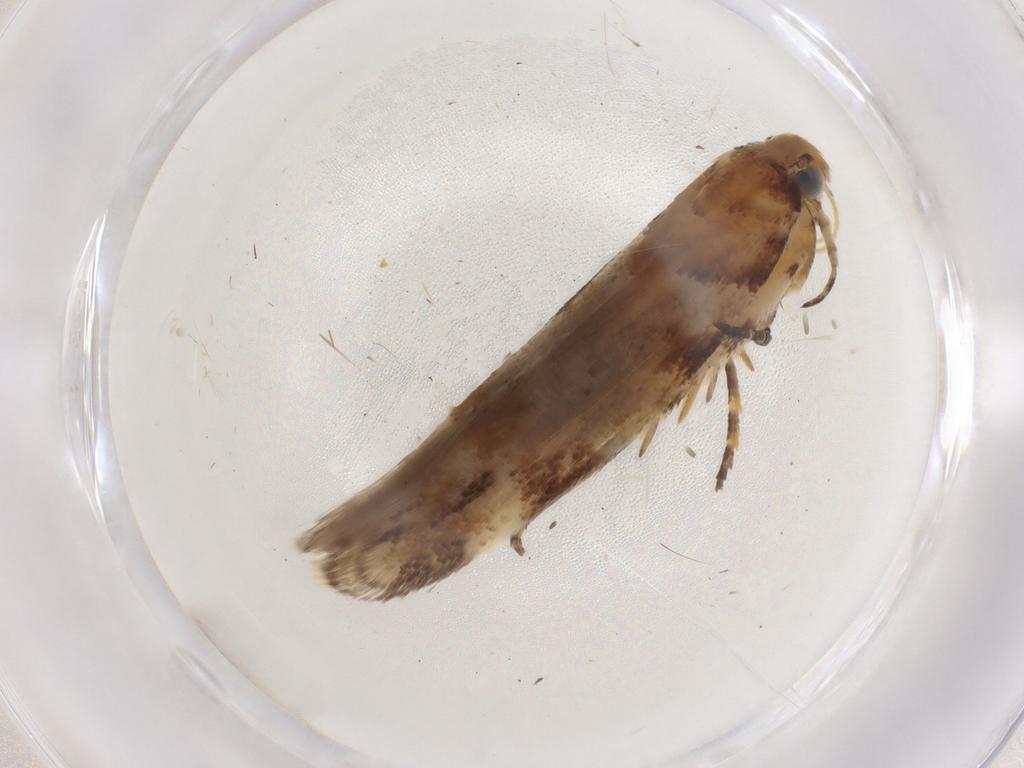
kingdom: Animalia
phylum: Arthropoda
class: Insecta
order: Lepidoptera
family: Gelechiidae
